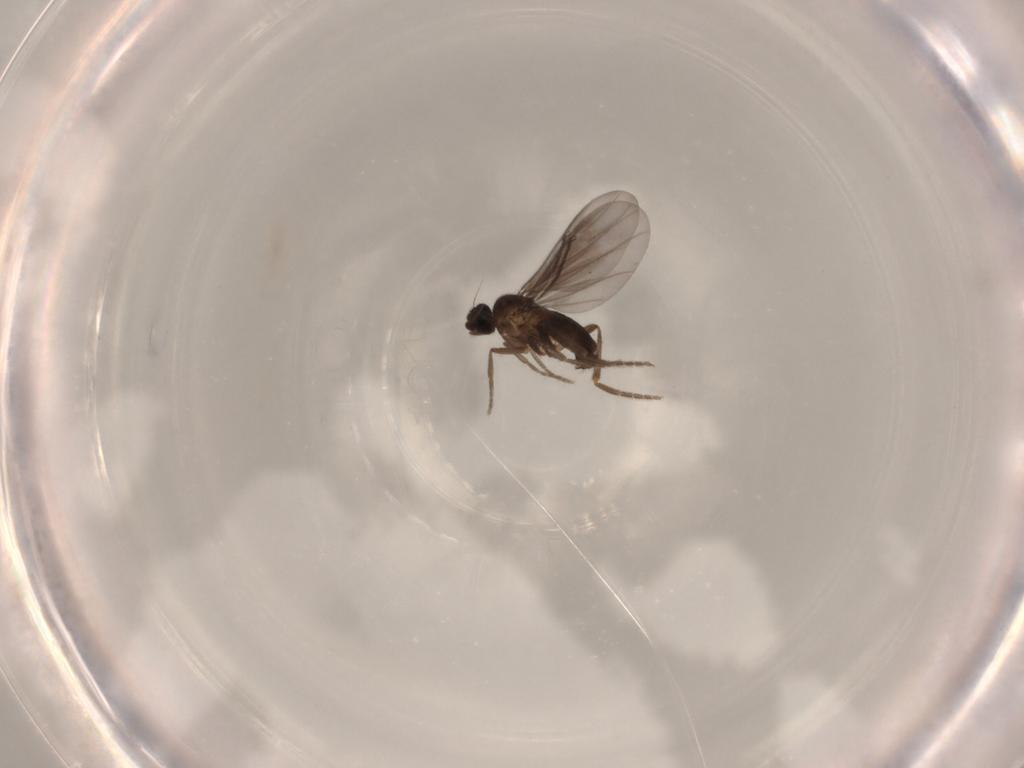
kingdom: Animalia
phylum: Arthropoda
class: Insecta
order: Diptera
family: Phoridae
